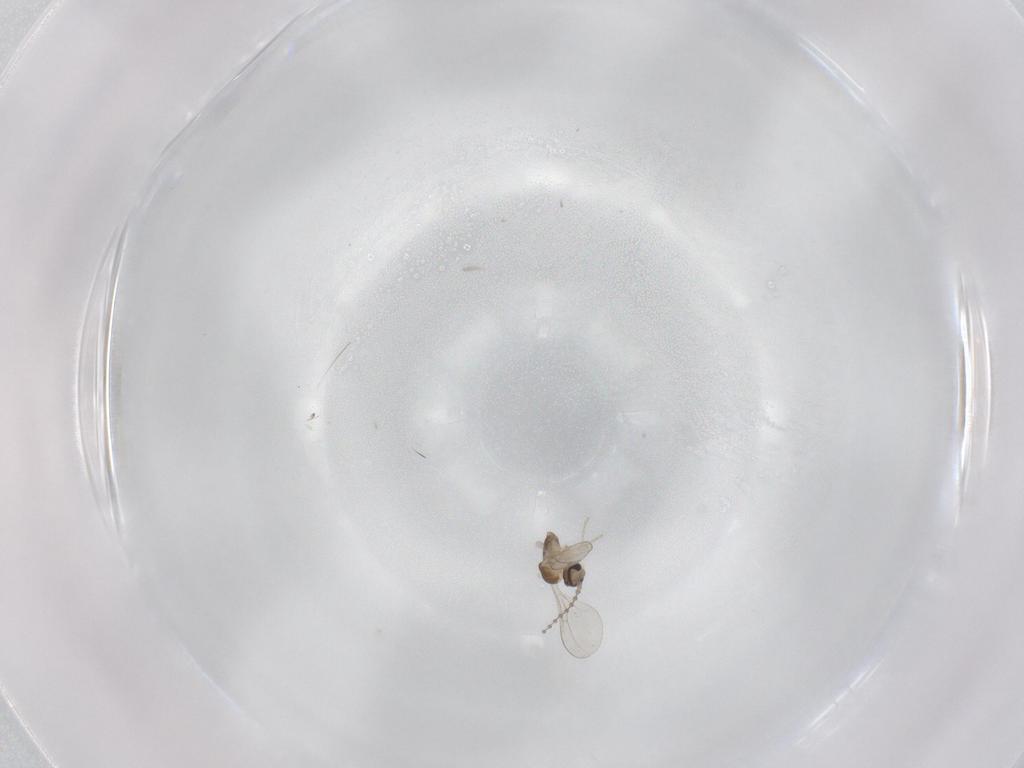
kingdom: Animalia
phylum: Arthropoda
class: Insecta
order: Diptera
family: Cecidomyiidae
